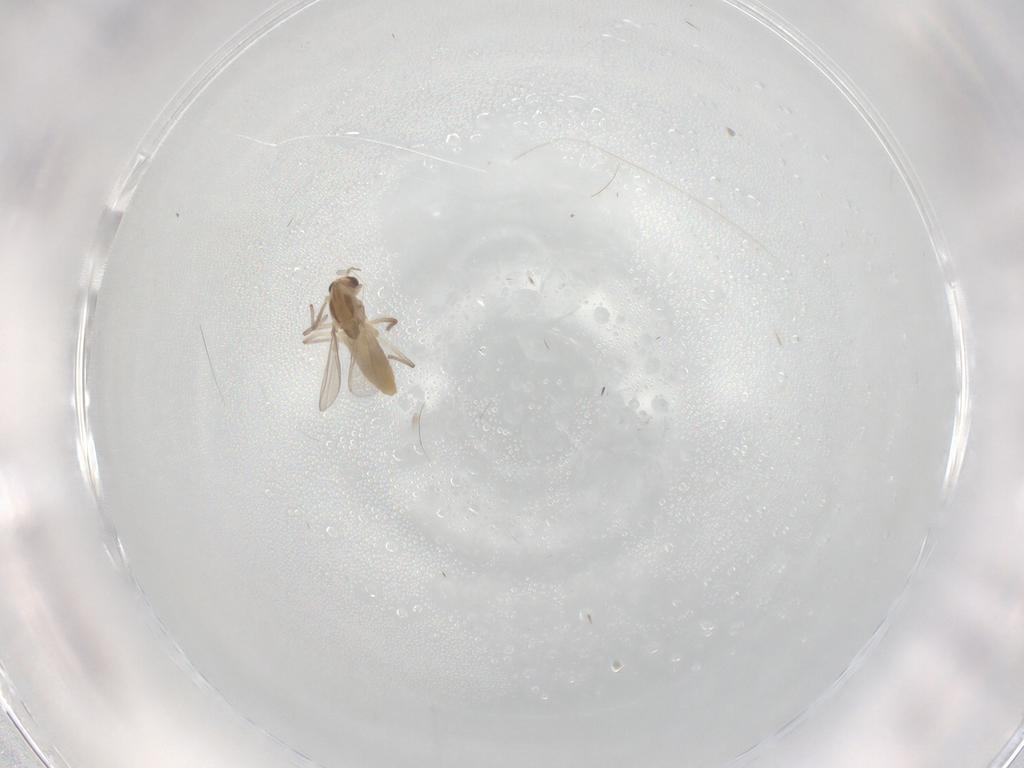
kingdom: Animalia
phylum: Arthropoda
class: Insecta
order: Diptera
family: Chironomidae
